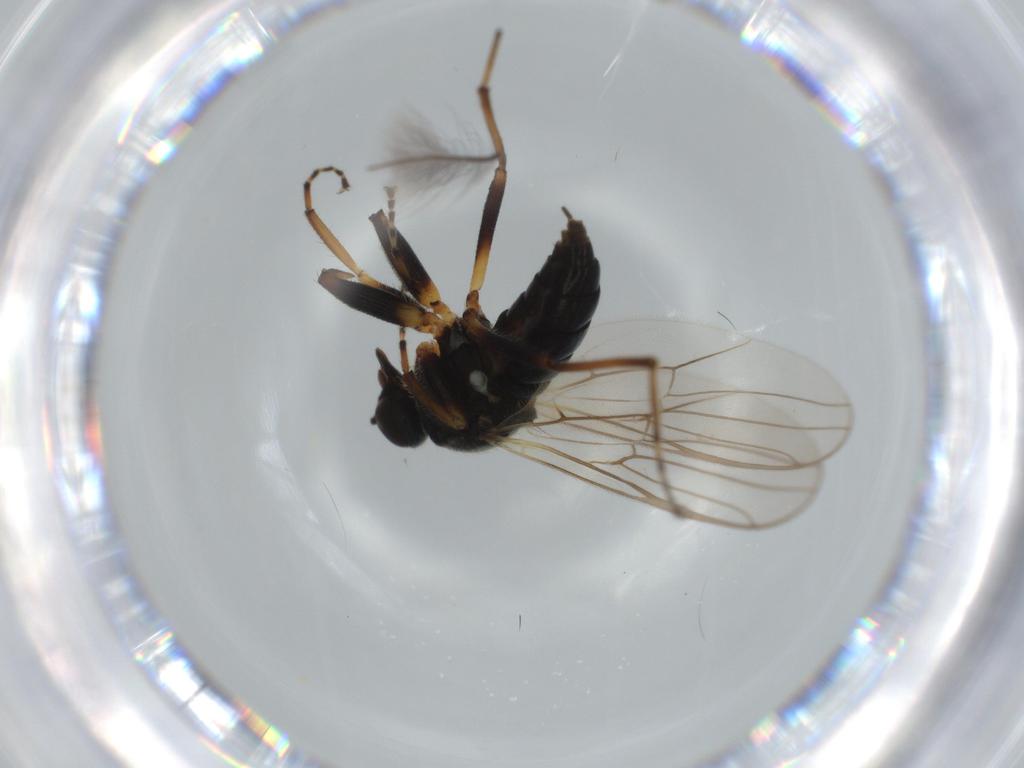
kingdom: Animalia
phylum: Arthropoda
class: Insecta
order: Diptera
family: Hybotidae
